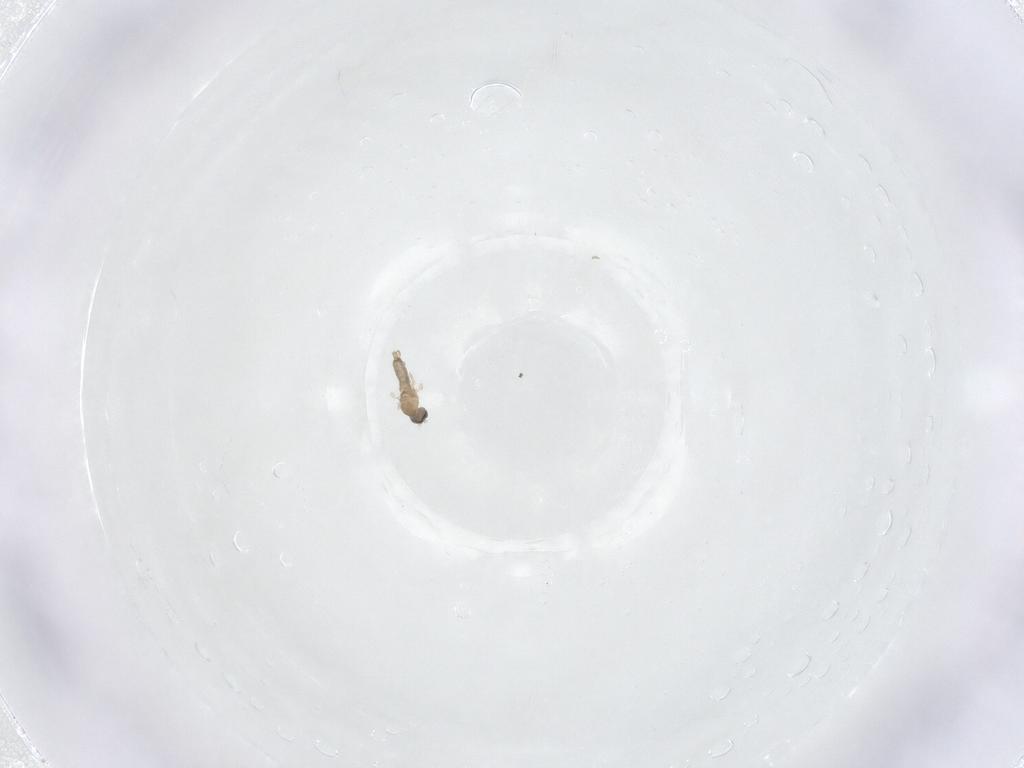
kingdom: Animalia
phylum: Arthropoda
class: Insecta
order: Diptera
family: Cecidomyiidae
